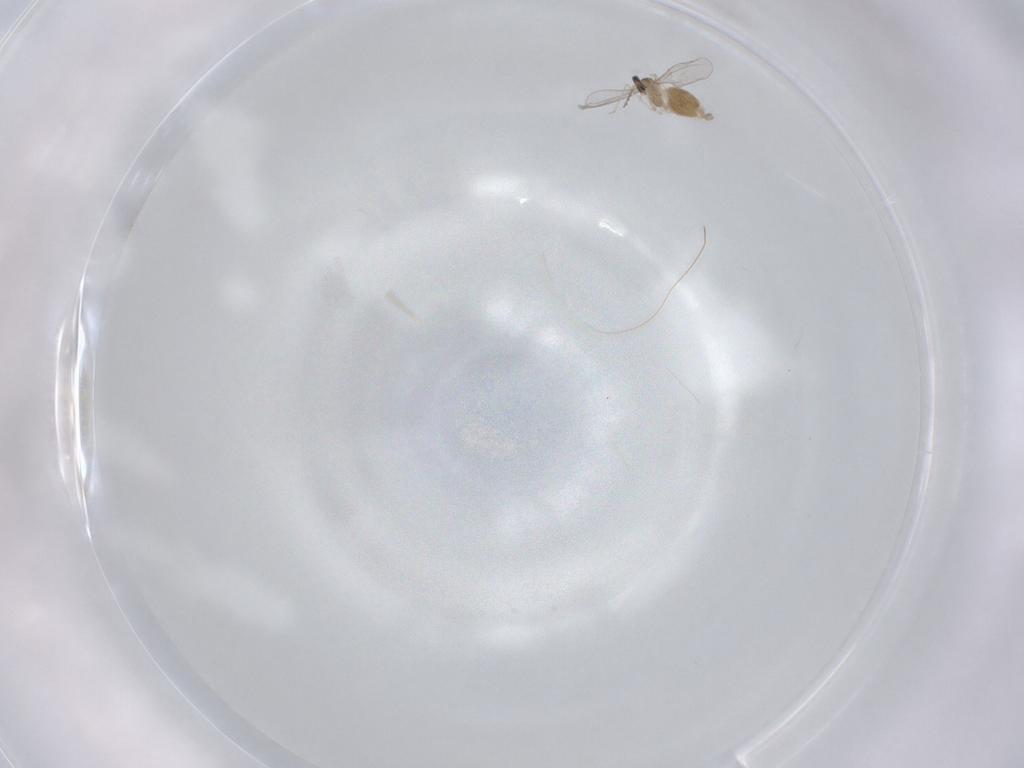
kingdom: Animalia
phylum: Arthropoda
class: Insecta
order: Diptera
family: Cecidomyiidae
